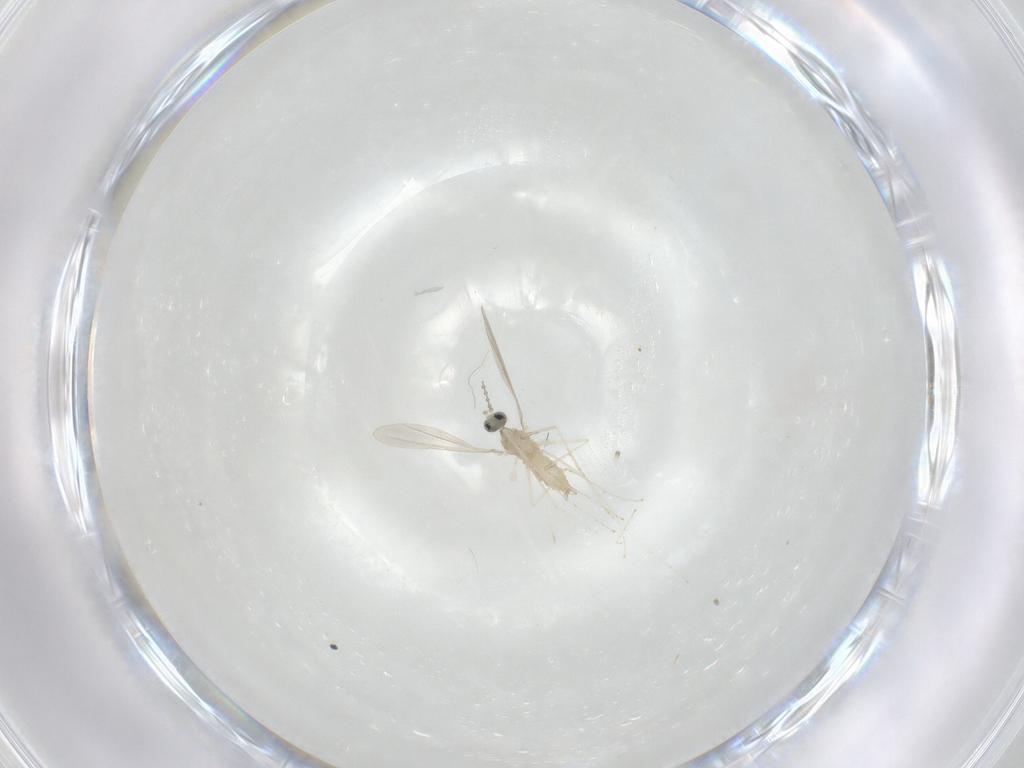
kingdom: Animalia
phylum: Arthropoda
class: Insecta
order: Diptera
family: Cecidomyiidae
